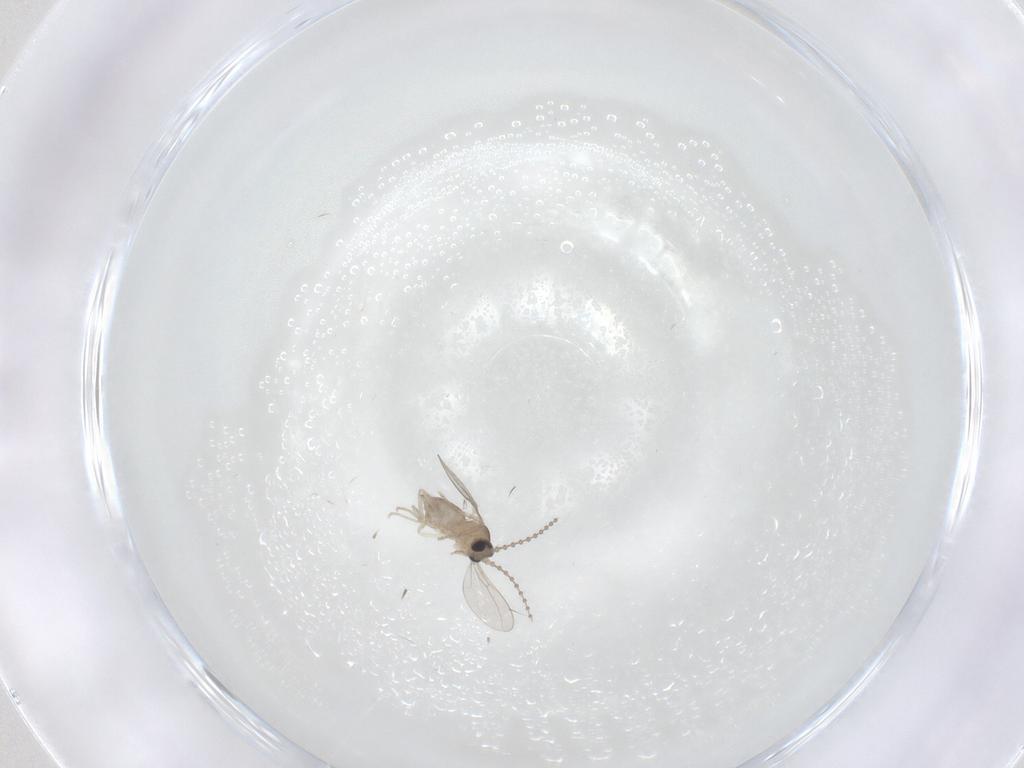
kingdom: Animalia
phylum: Arthropoda
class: Insecta
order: Diptera
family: Cecidomyiidae
